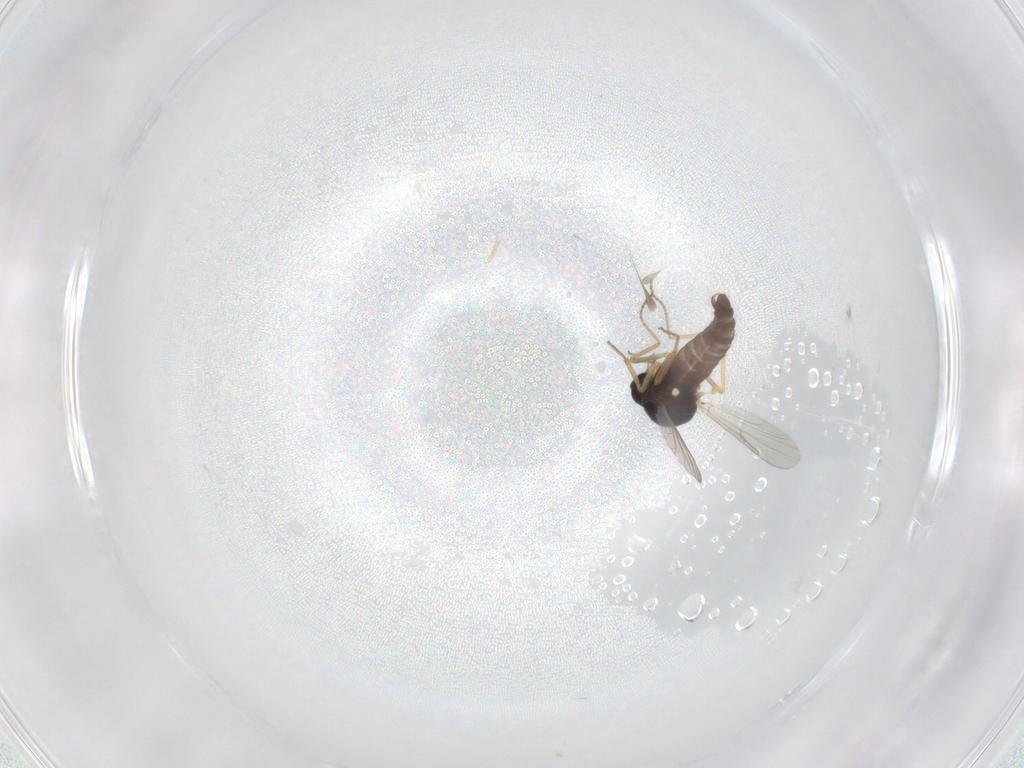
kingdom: Animalia
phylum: Arthropoda
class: Insecta
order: Diptera
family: Ceratopogonidae
